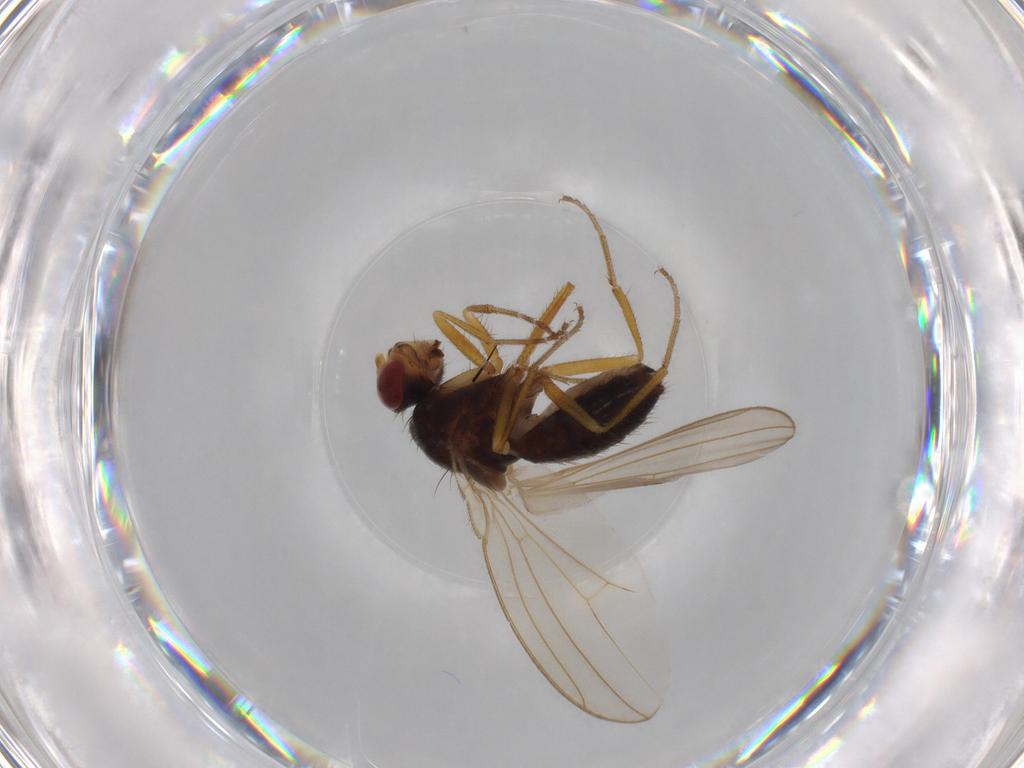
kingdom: Animalia
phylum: Arthropoda
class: Insecta
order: Diptera
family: Drosophilidae
